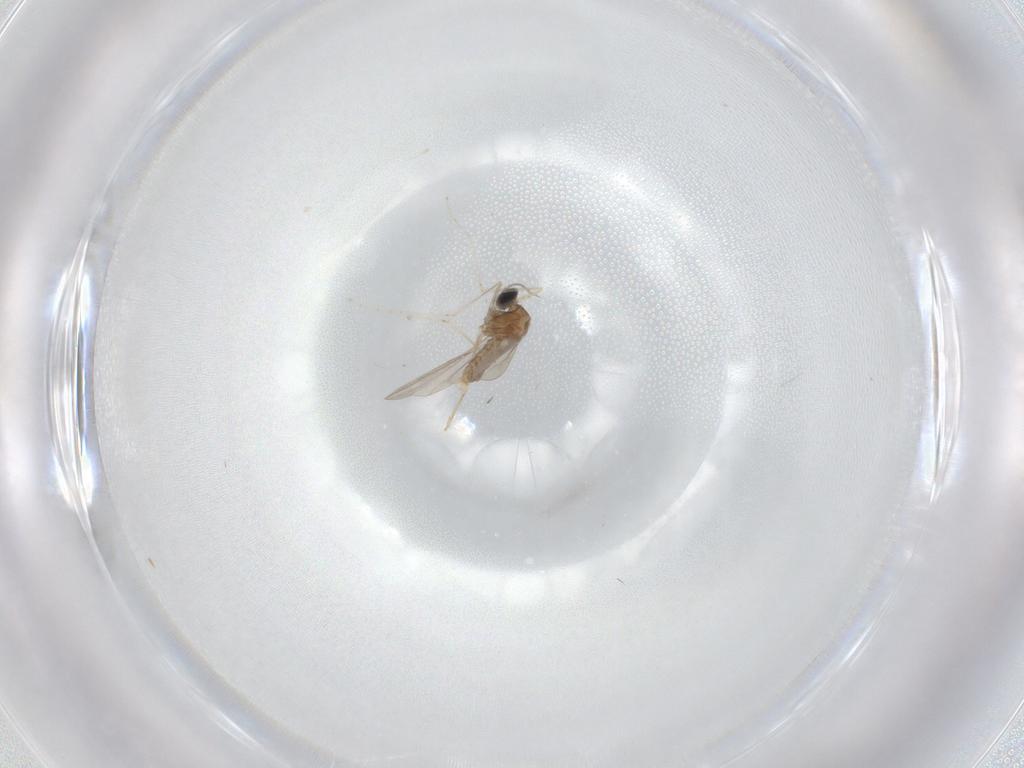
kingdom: Animalia
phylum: Arthropoda
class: Insecta
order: Diptera
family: Cecidomyiidae
